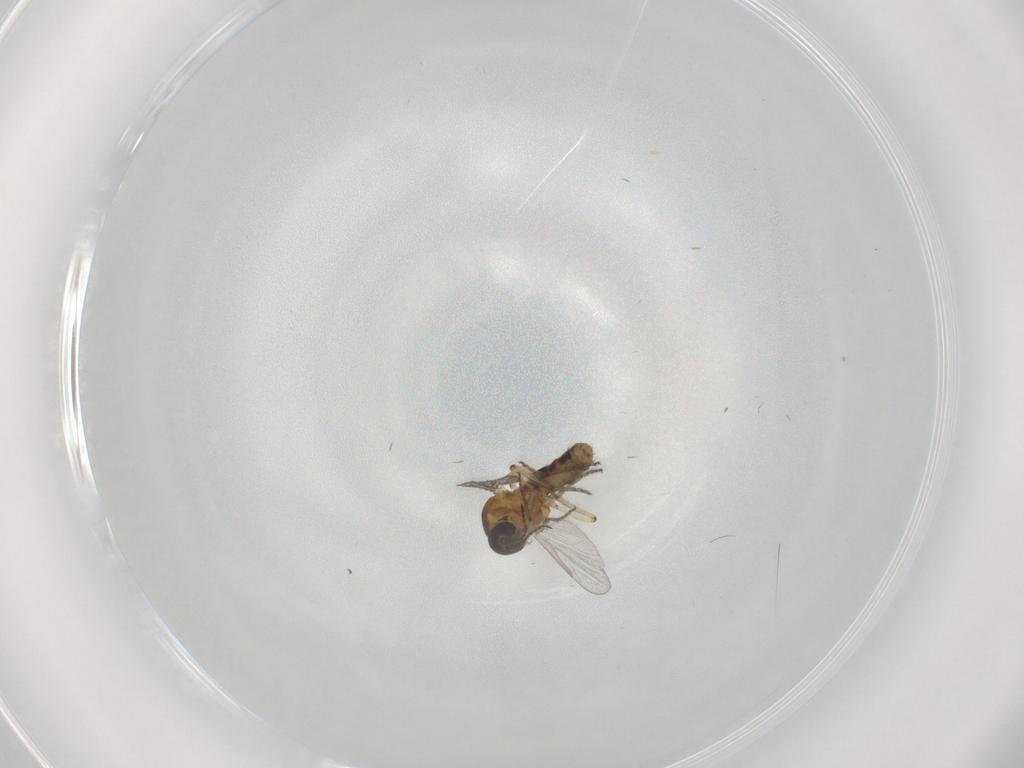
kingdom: Animalia
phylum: Arthropoda
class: Insecta
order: Diptera
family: Ceratopogonidae
